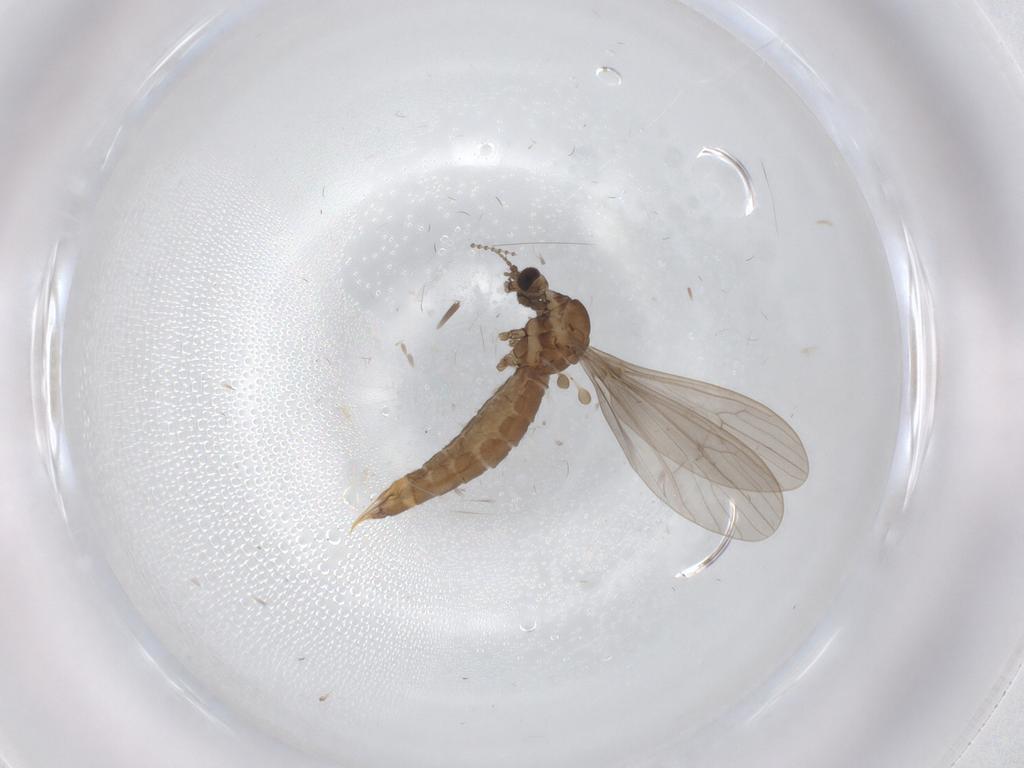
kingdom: Animalia
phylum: Arthropoda
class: Insecta
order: Diptera
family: Limoniidae
